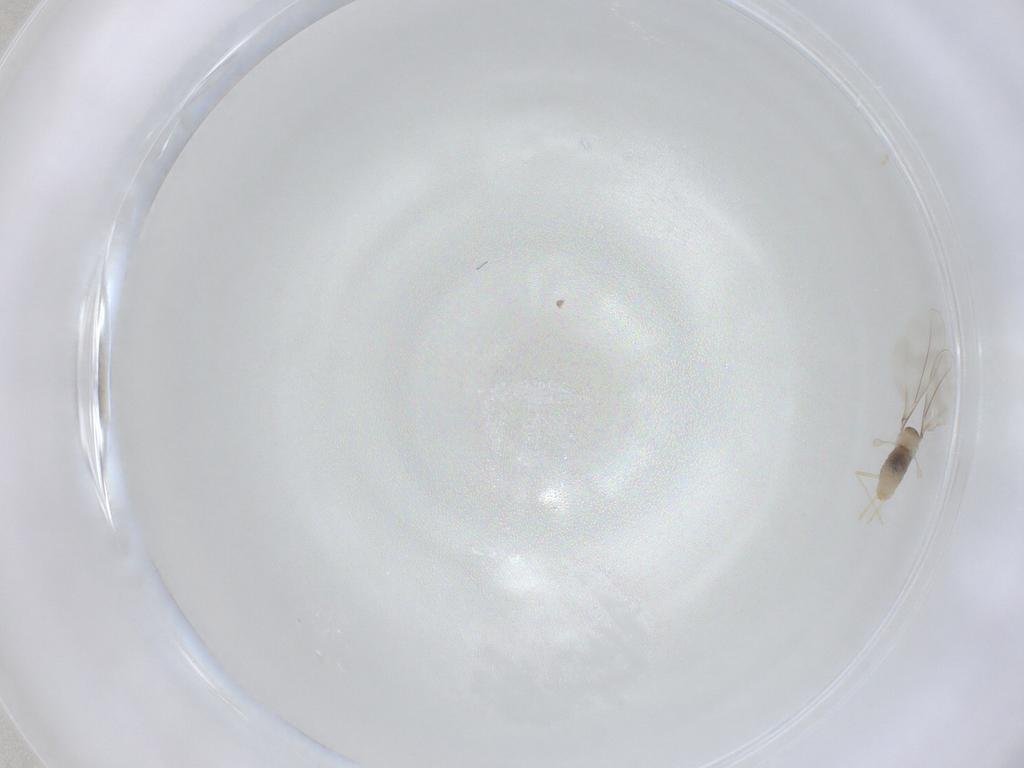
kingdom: Animalia
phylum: Arthropoda
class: Insecta
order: Diptera
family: Cecidomyiidae
